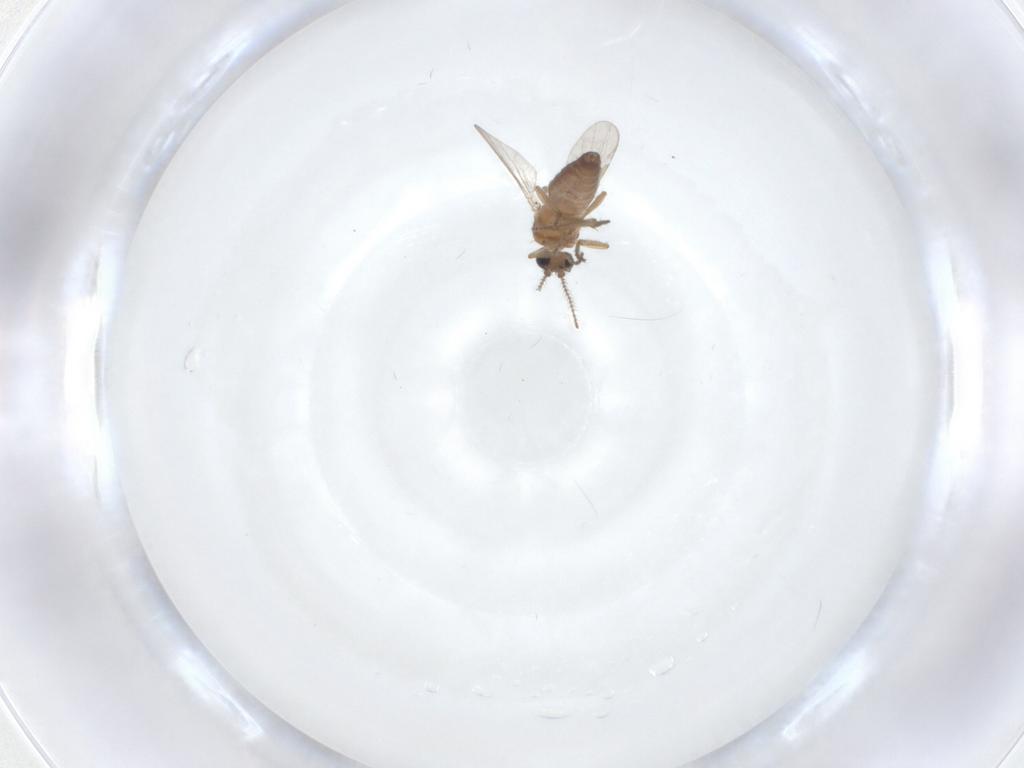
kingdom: Animalia
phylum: Arthropoda
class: Insecta
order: Diptera
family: Ceratopogonidae
